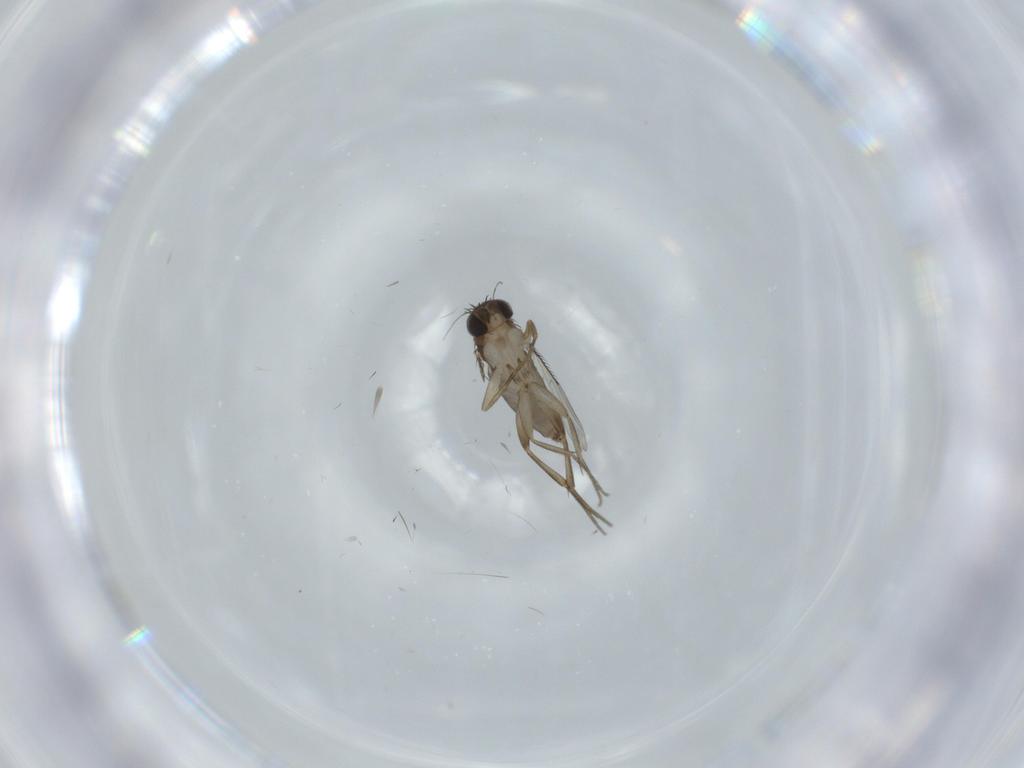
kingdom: Animalia
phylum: Arthropoda
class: Insecta
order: Diptera
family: Phoridae
